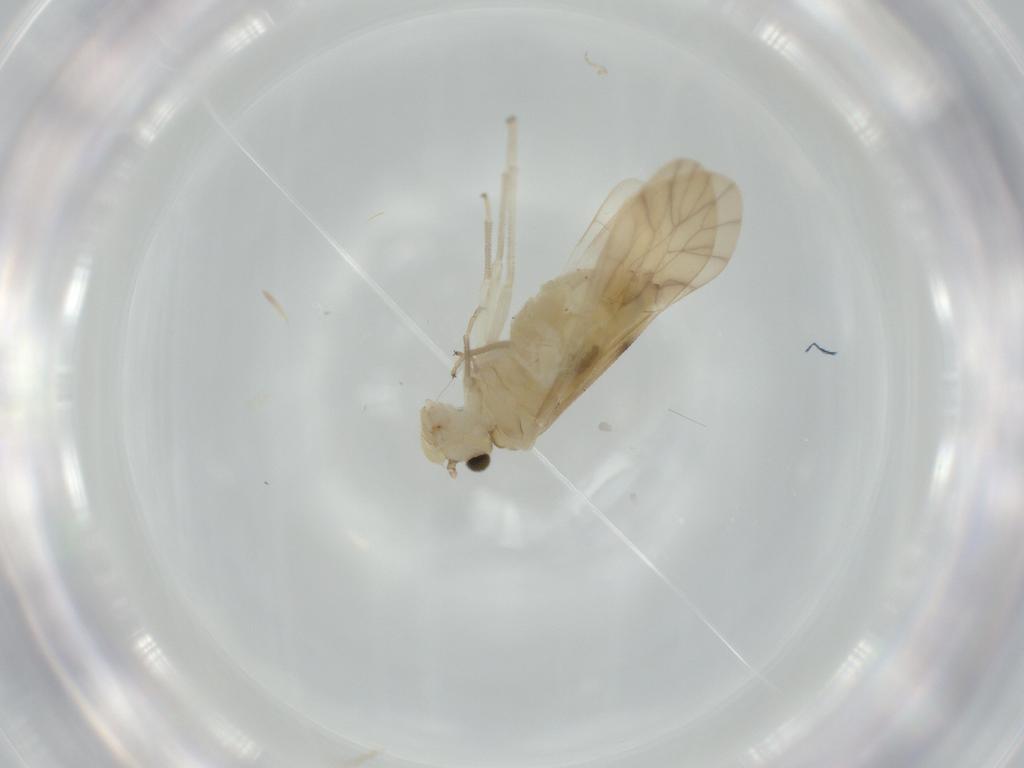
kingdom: Animalia
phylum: Arthropoda
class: Insecta
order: Psocodea
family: Caeciliusidae
